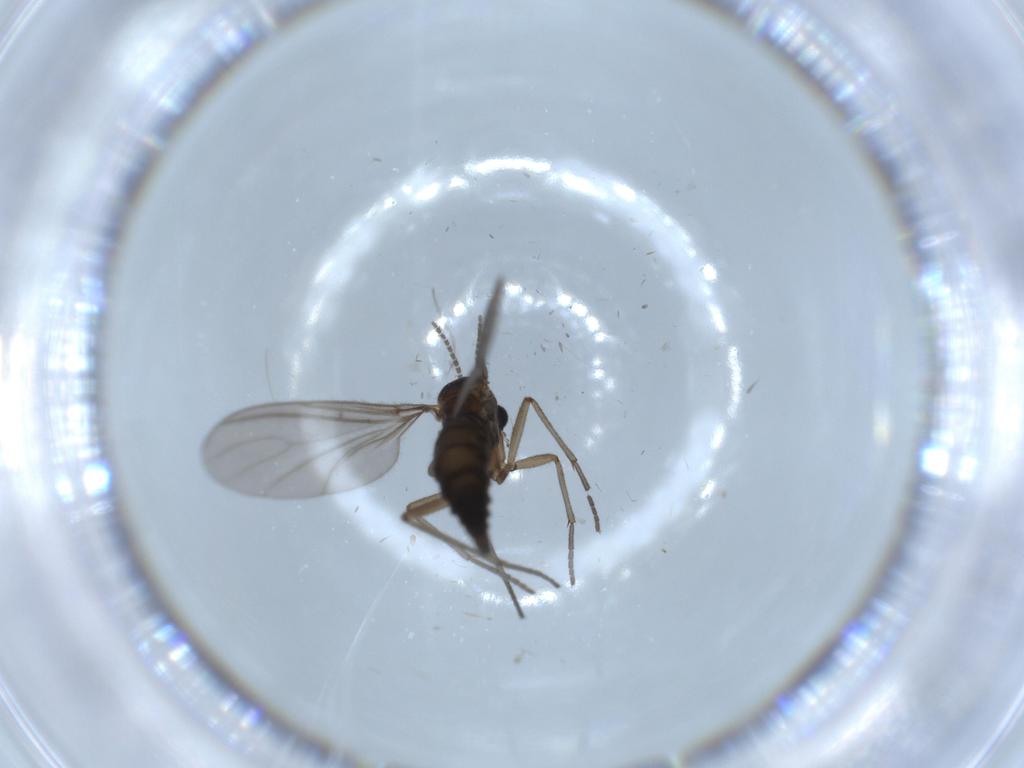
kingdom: Animalia
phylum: Arthropoda
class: Insecta
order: Diptera
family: Sciaridae
